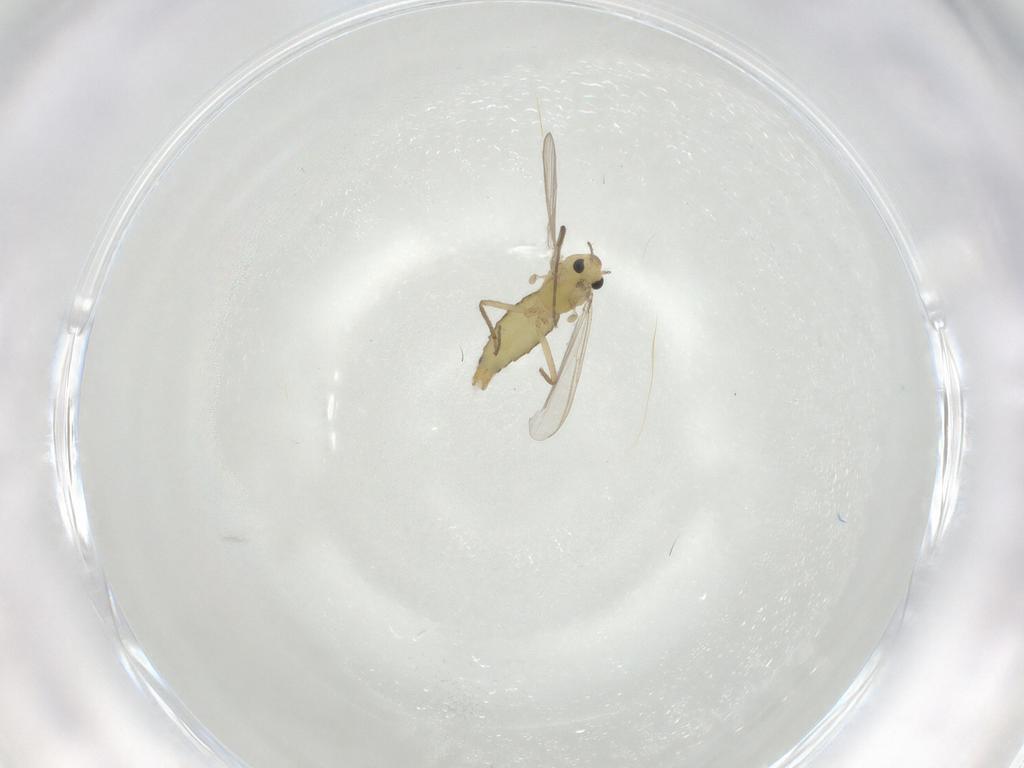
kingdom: Animalia
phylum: Arthropoda
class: Insecta
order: Diptera
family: Chironomidae
